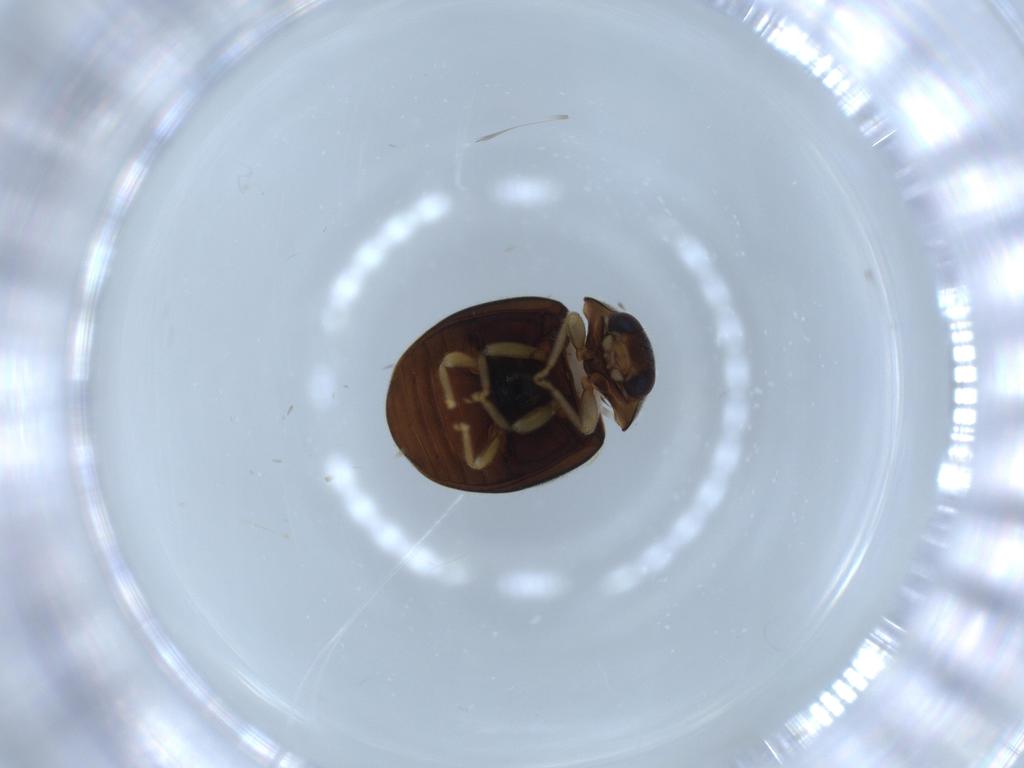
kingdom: Animalia
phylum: Arthropoda
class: Insecta
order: Coleoptera
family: Coccinellidae
